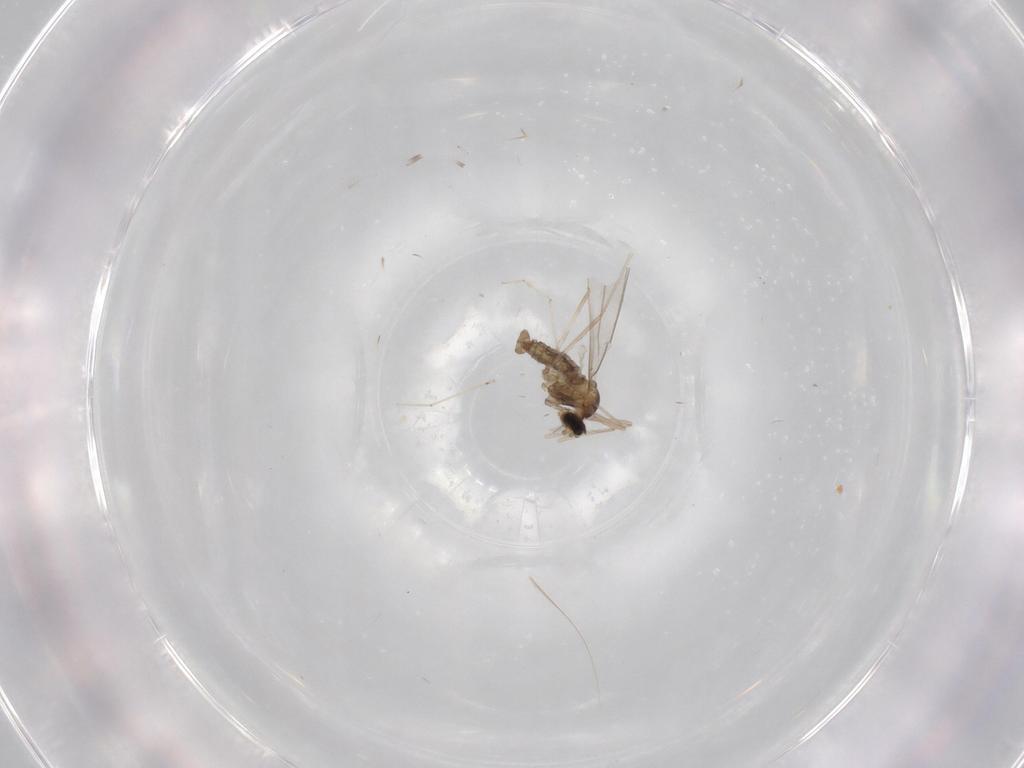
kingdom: Animalia
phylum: Arthropoda
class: Insecta
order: Diptera
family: Cecidomyiidae
